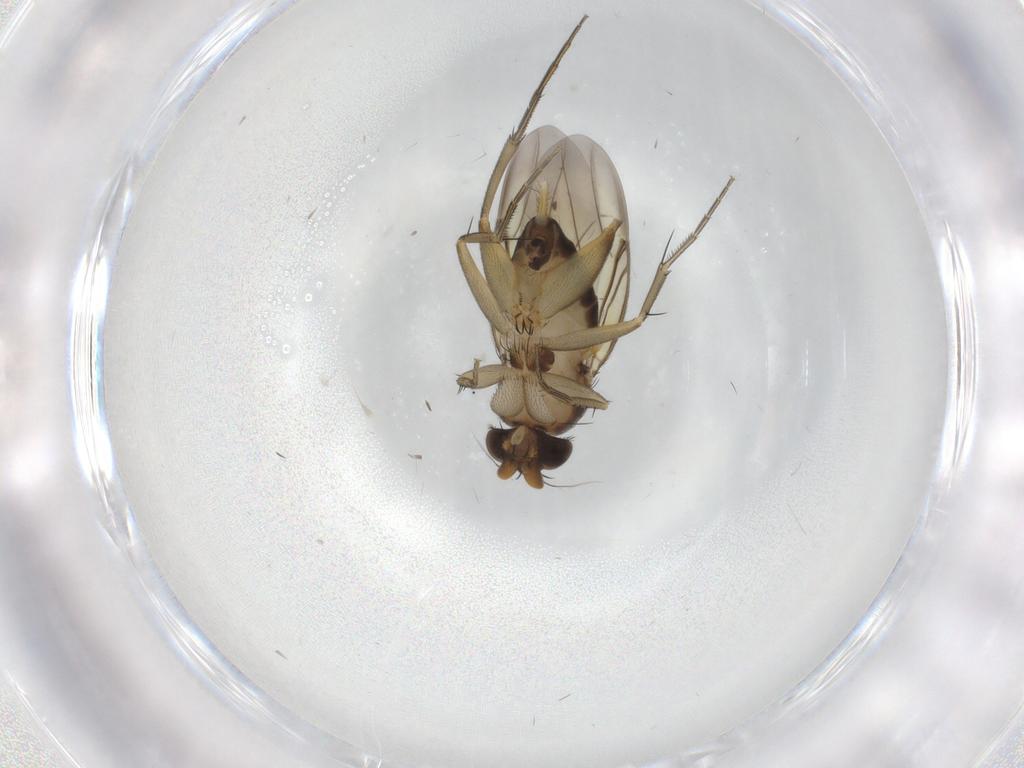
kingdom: Animalia
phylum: Arthropoda
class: Insecta
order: Diptera
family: Phoridae
